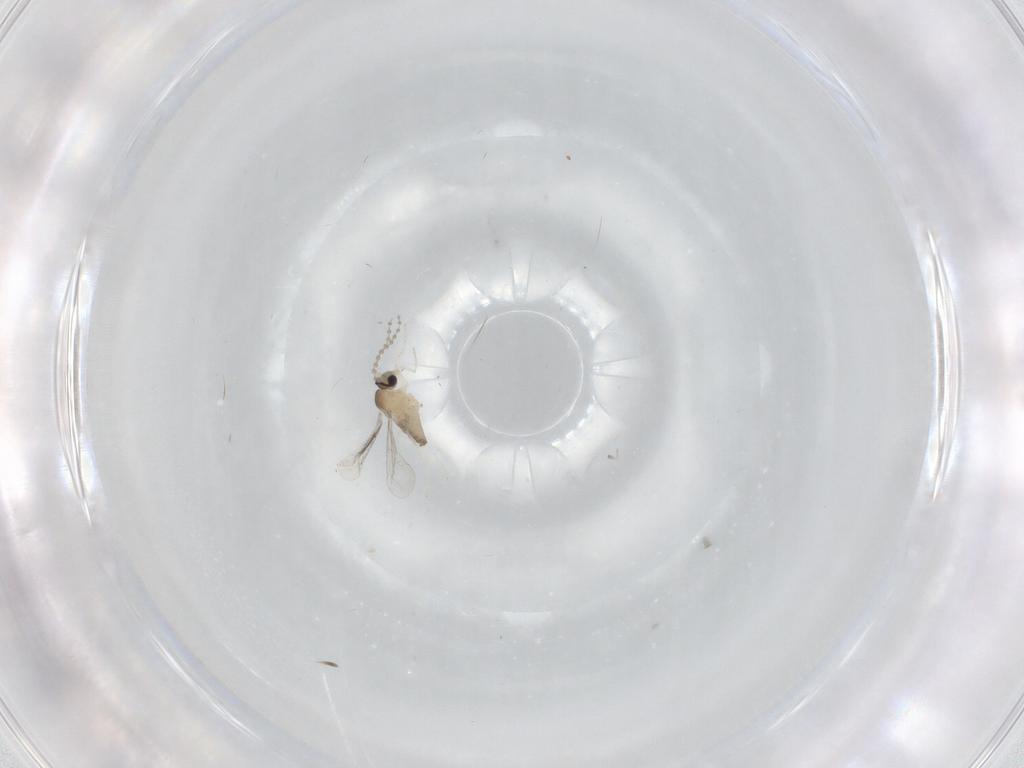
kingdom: Animalia
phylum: Arthropoda
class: Insecta
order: Diptera
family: Cecidomyiidae
